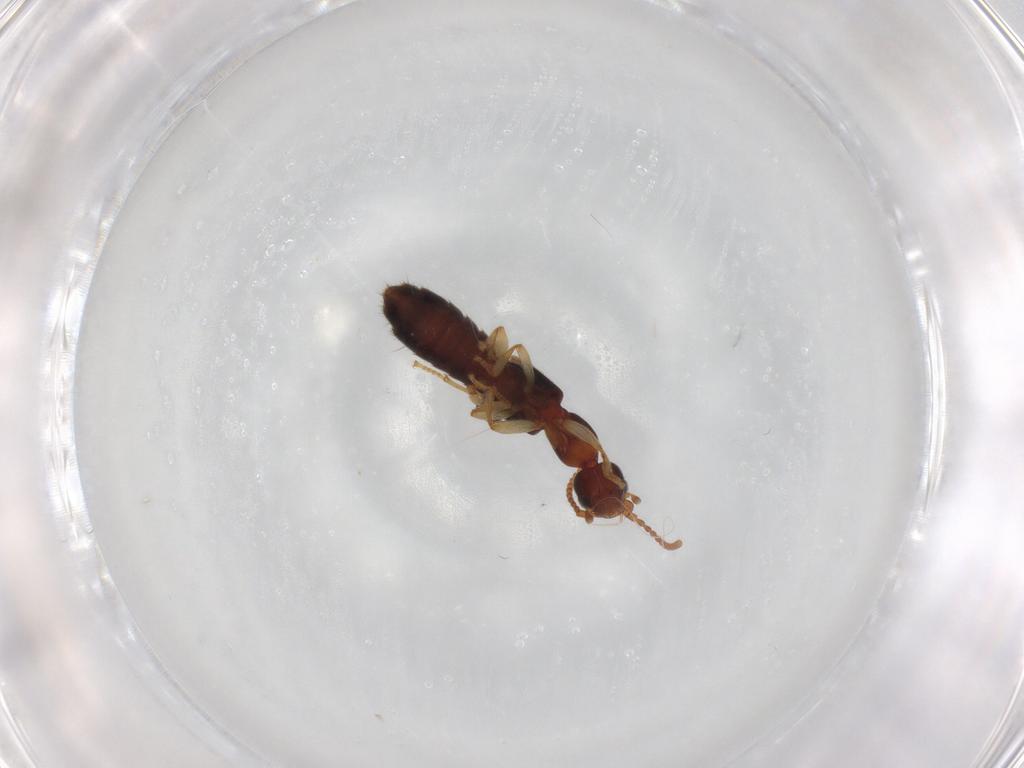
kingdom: Animalia
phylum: Arthropoda
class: Insecta
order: Coleoptera
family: Staphylinidae
